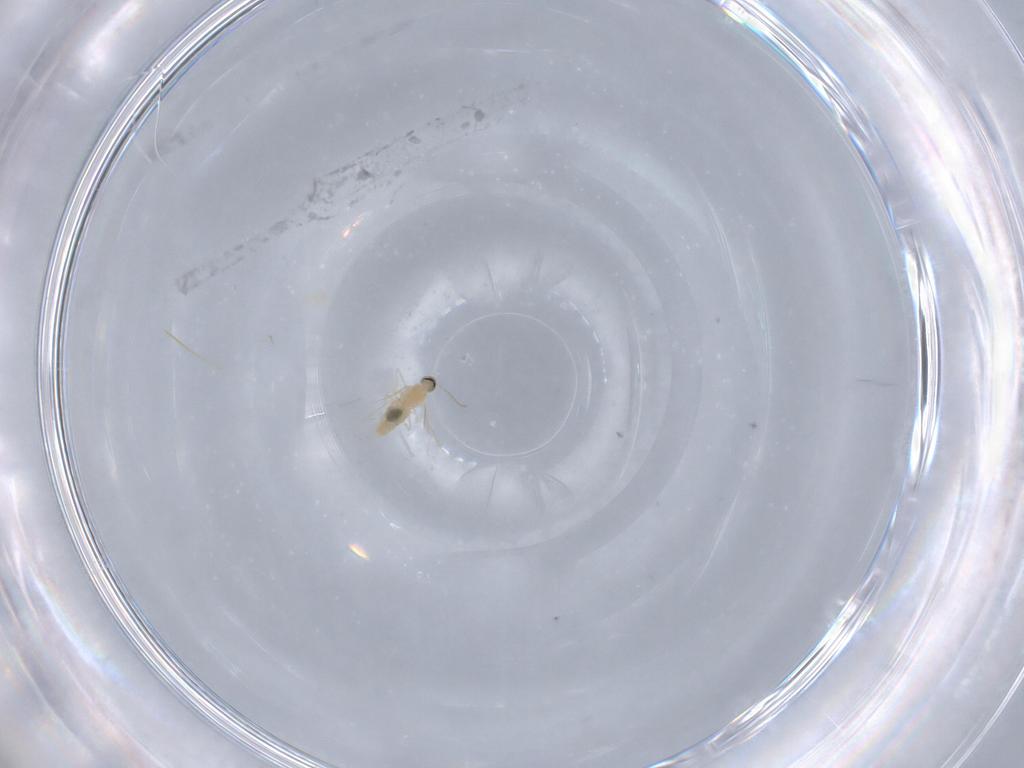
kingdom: Animalia
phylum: Arthropoda
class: Insecta
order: Diptera
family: Cecidomyiidae
